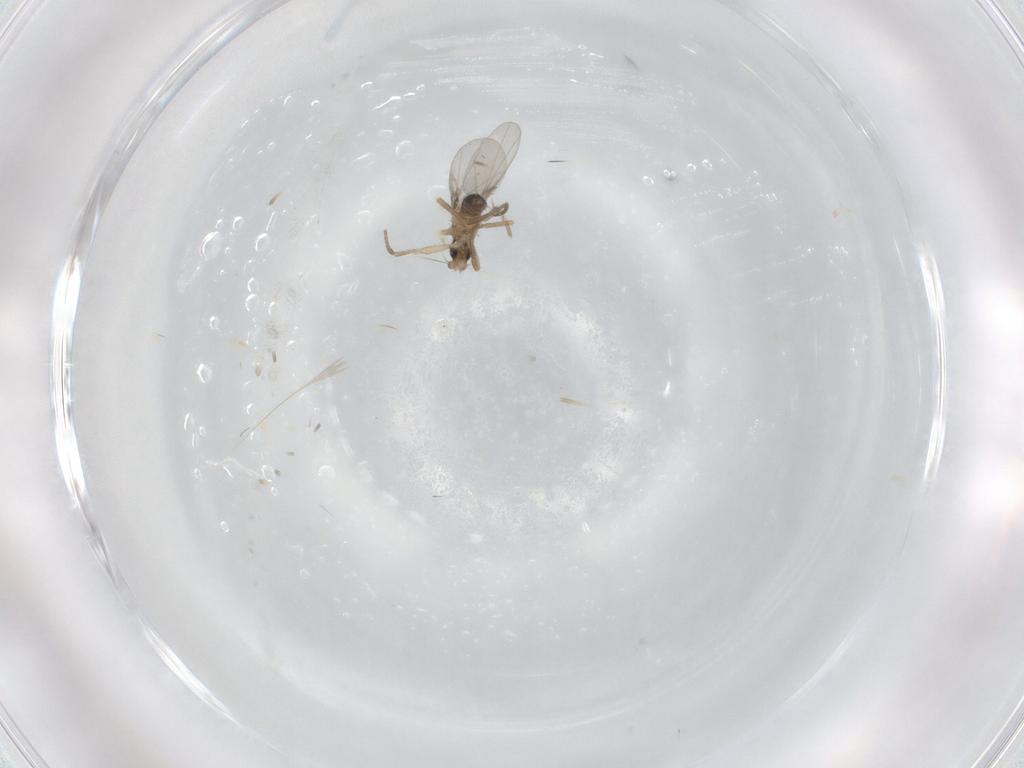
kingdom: Animalia
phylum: Arthropoda
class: Insecta
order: Diptera
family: Phoridae
